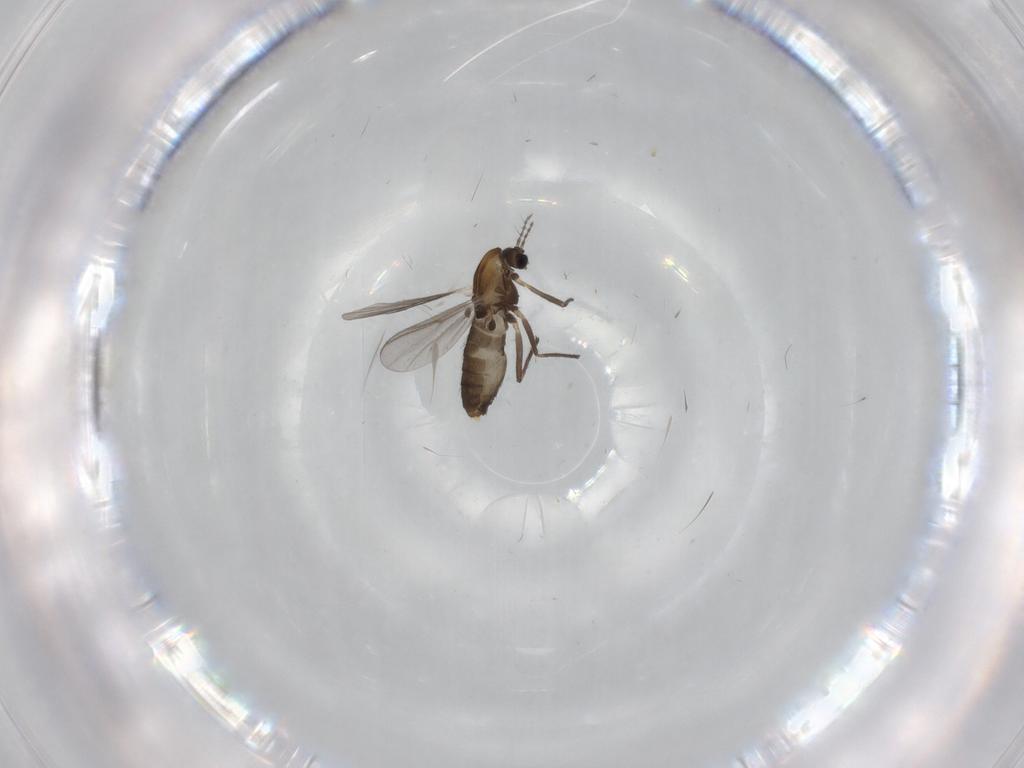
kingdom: Animalia
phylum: Arthropoda
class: Insecta
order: Diptera
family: Chironomidae
